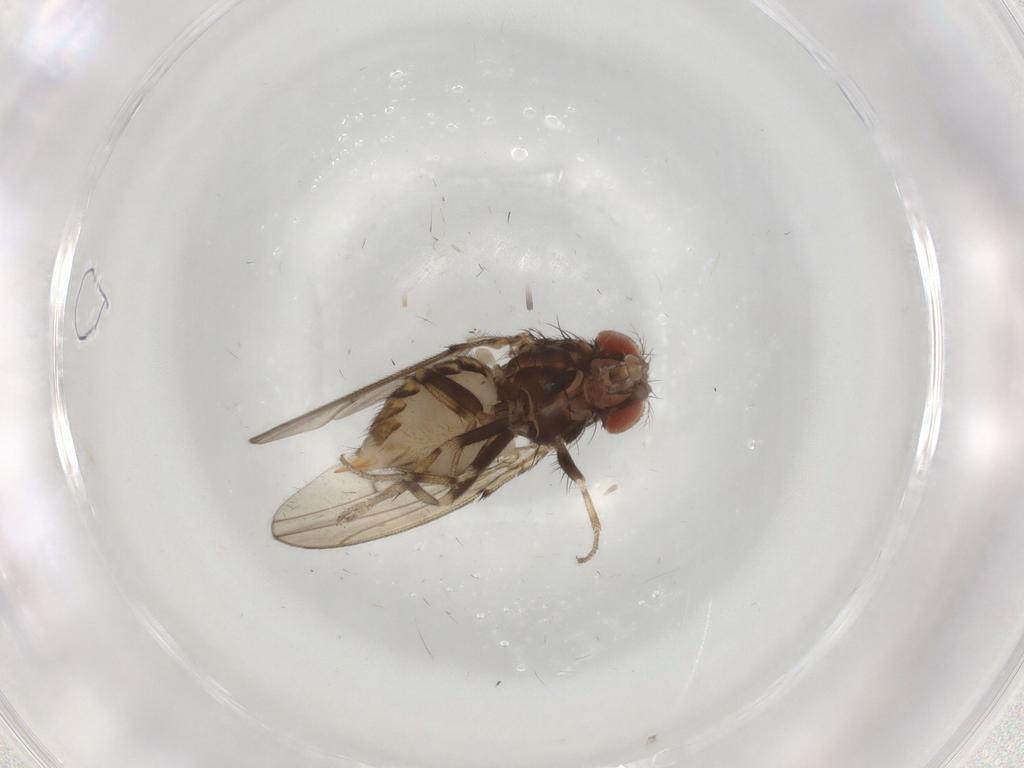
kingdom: Animalia
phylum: Arthropoda
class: Insecta
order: Diptera
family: Drosophilidae
